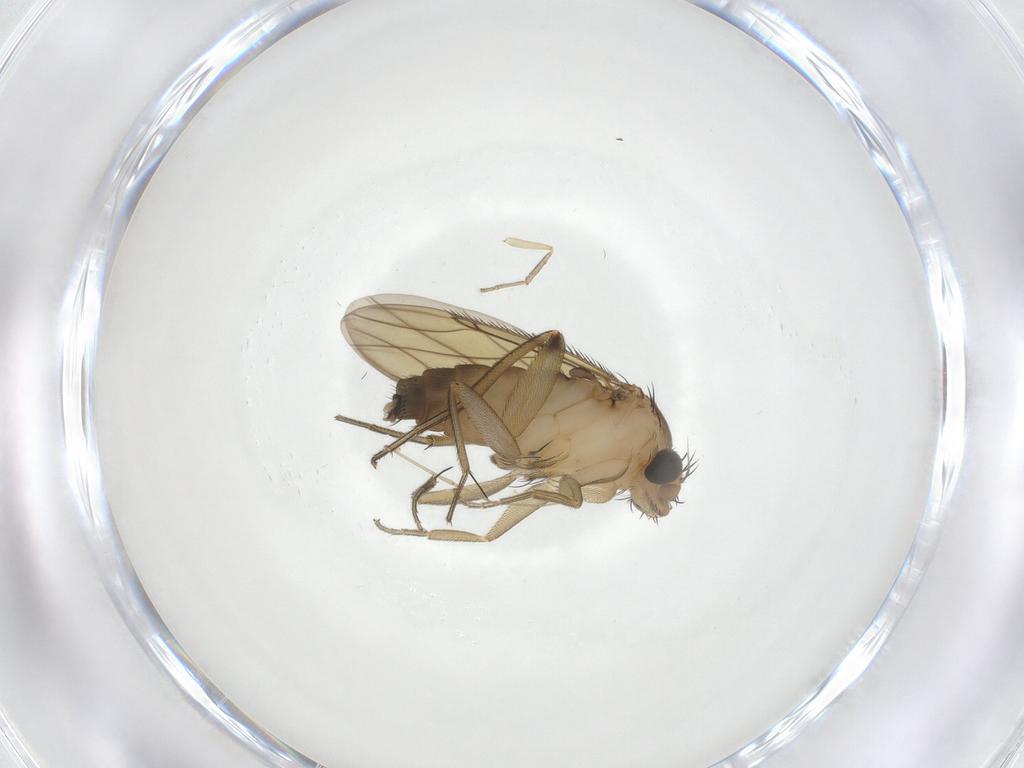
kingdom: Animalia
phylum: Arthropoda
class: Insecta
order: Diptera
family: Phoridae
